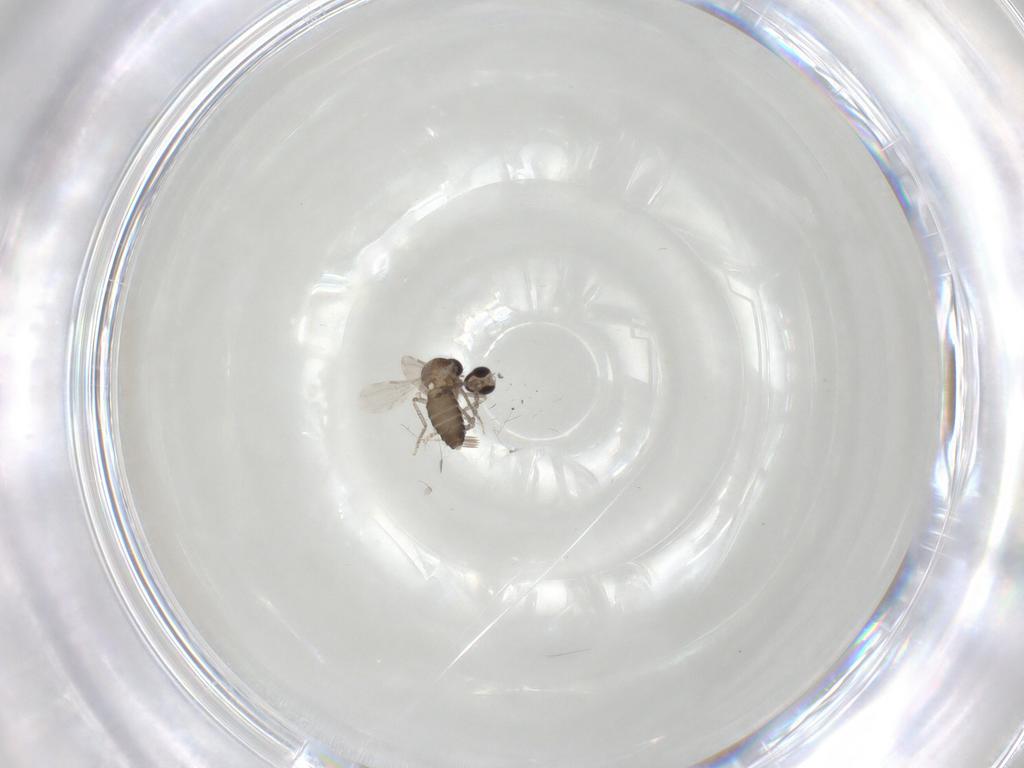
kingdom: Animalia
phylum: Arthropoda
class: Insecta
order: Diptera
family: Ceratopogonidae
